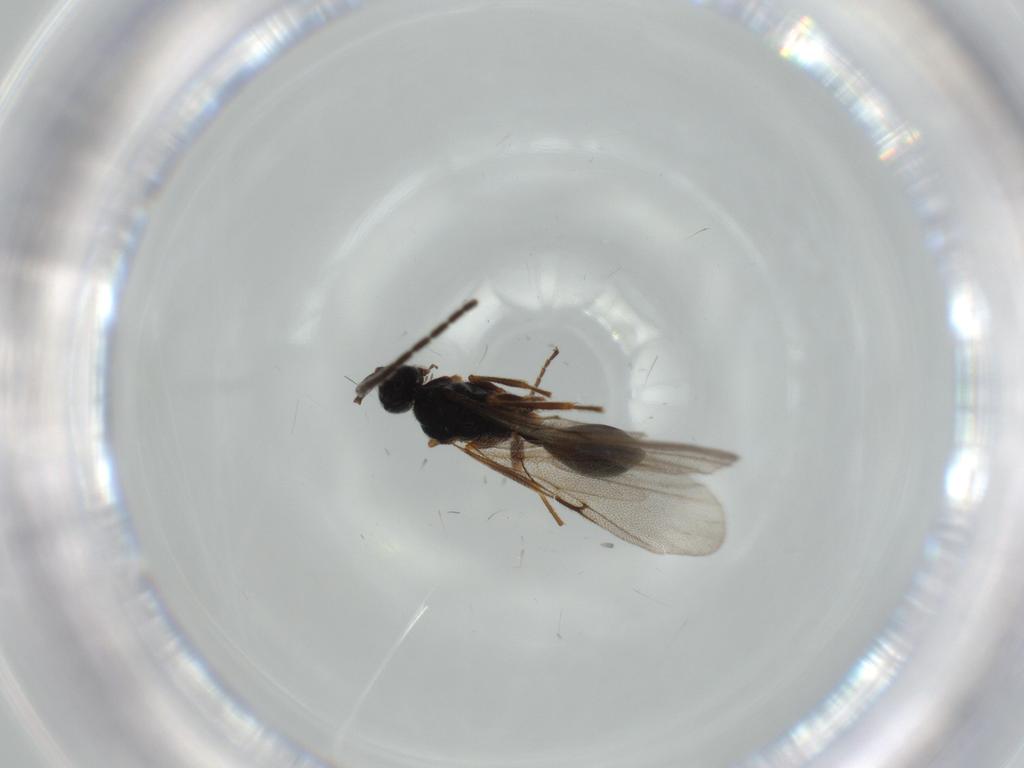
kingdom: Animalia
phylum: Arthropoda
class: Insecta
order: Hymenoptera
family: Ichneumonidae
